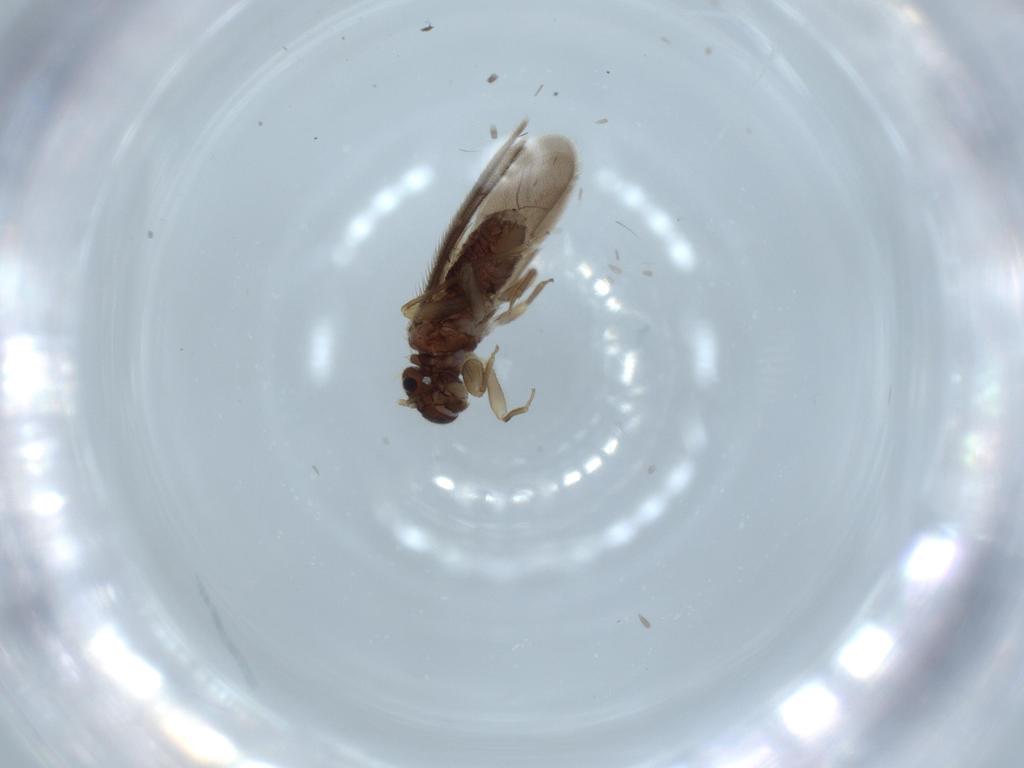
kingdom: Animalia
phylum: Arthropoda
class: Insecta
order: Psocodea
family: Archipsocidae
